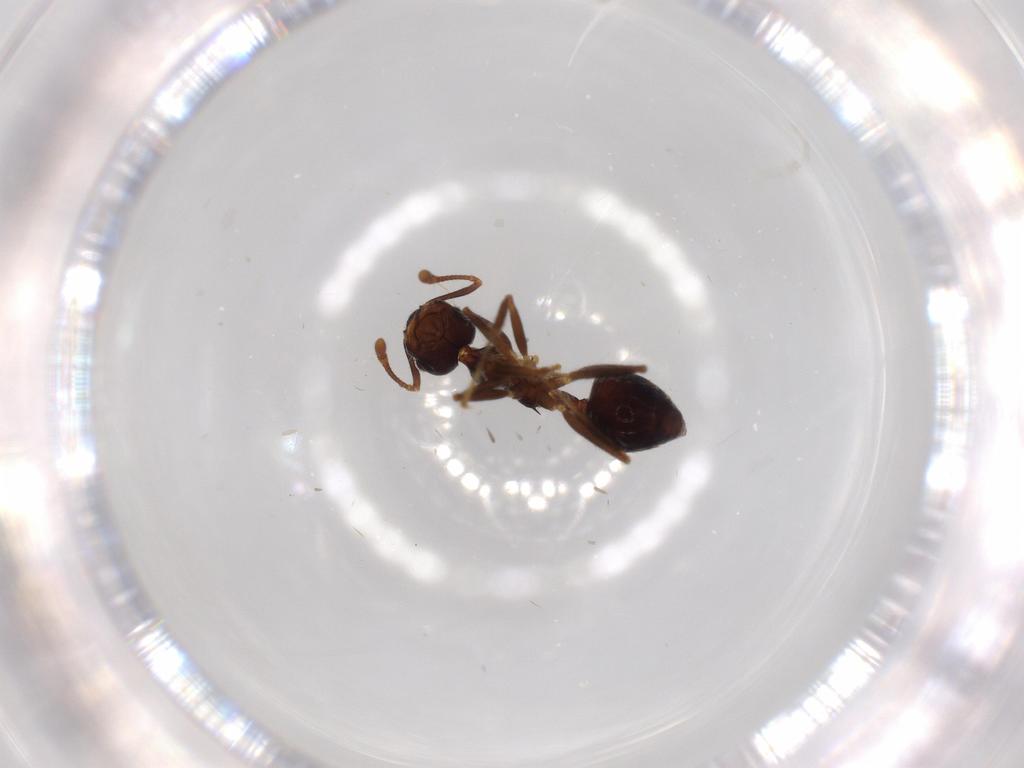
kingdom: Animalia
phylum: Arthropoda
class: Insecta
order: Hymenoptera
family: Formicidae
